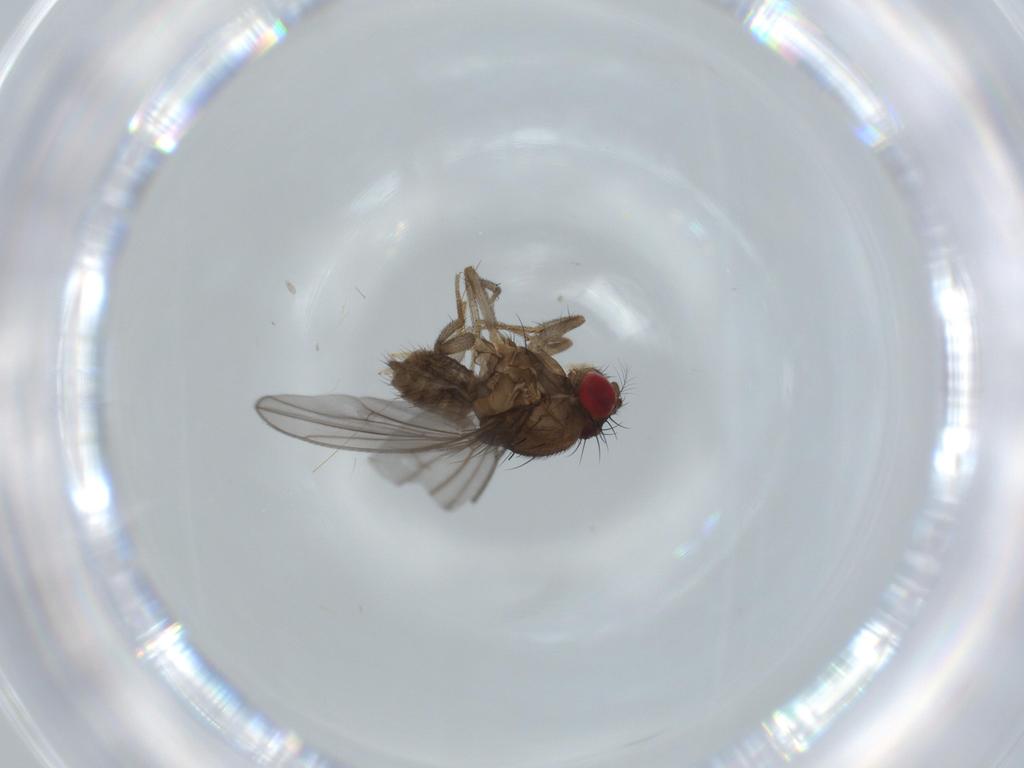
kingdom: Animalia
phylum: Arthropoda
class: Insecta
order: Diptera
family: Drosophilidae
